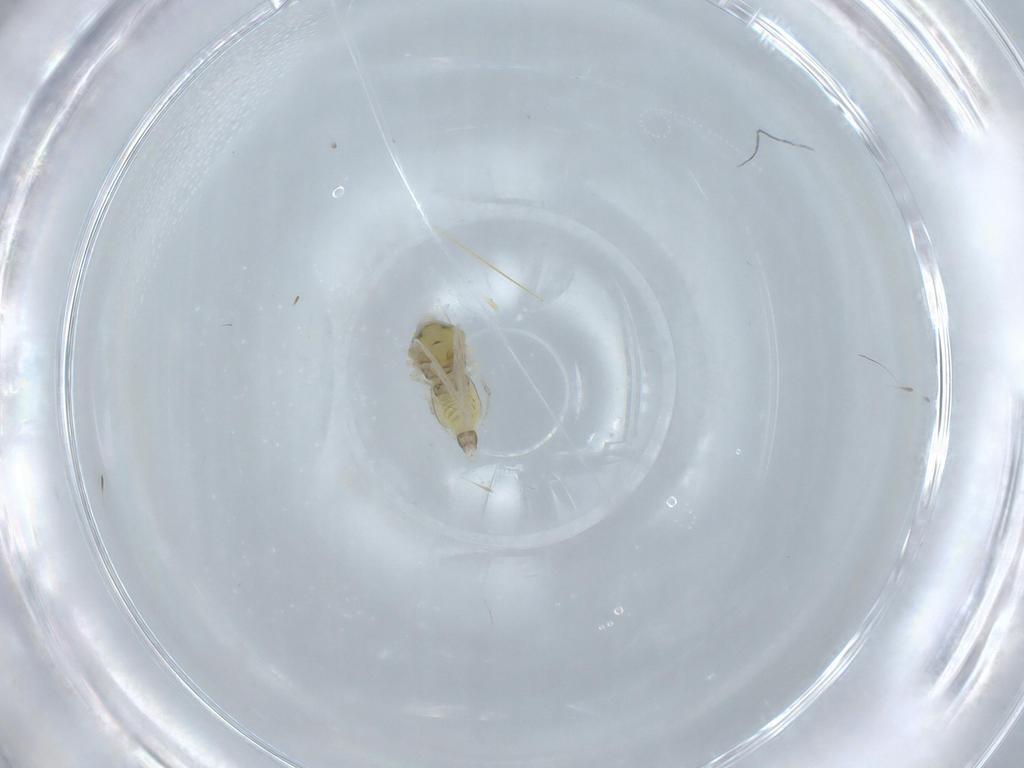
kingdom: Animalia
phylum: Arthropoda
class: Insecta
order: Hemiptera
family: Aleyrodidae
